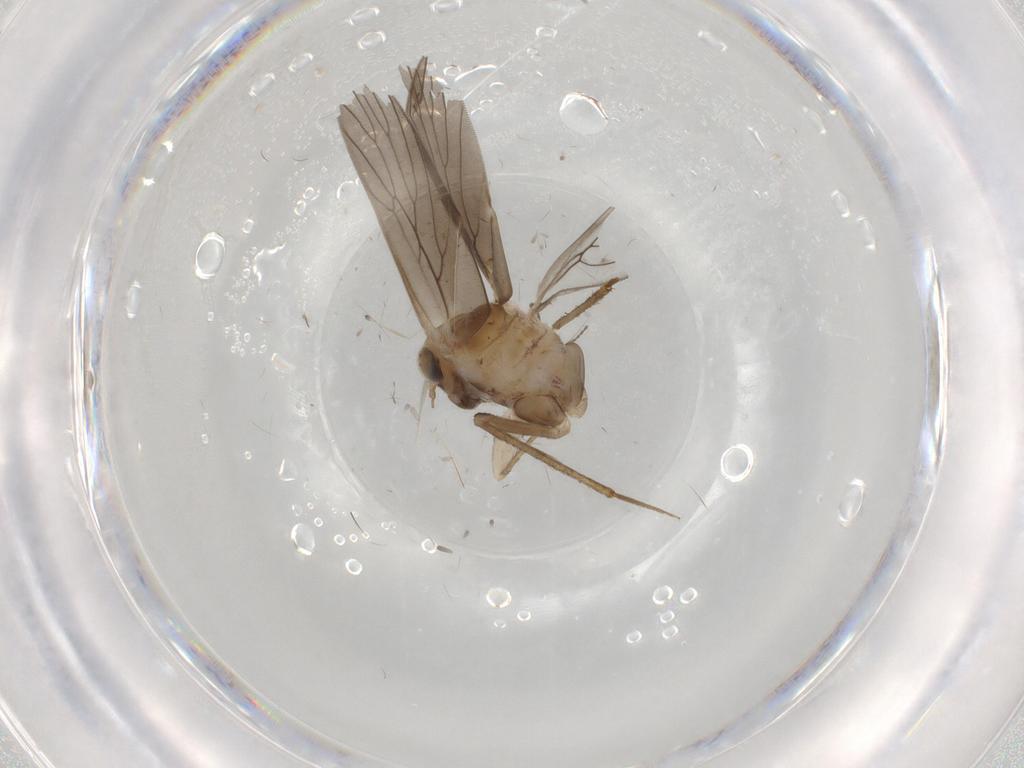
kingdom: Animalia
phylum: Arthropoda
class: Insecta
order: Psocodea
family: Lepidopsocidae
